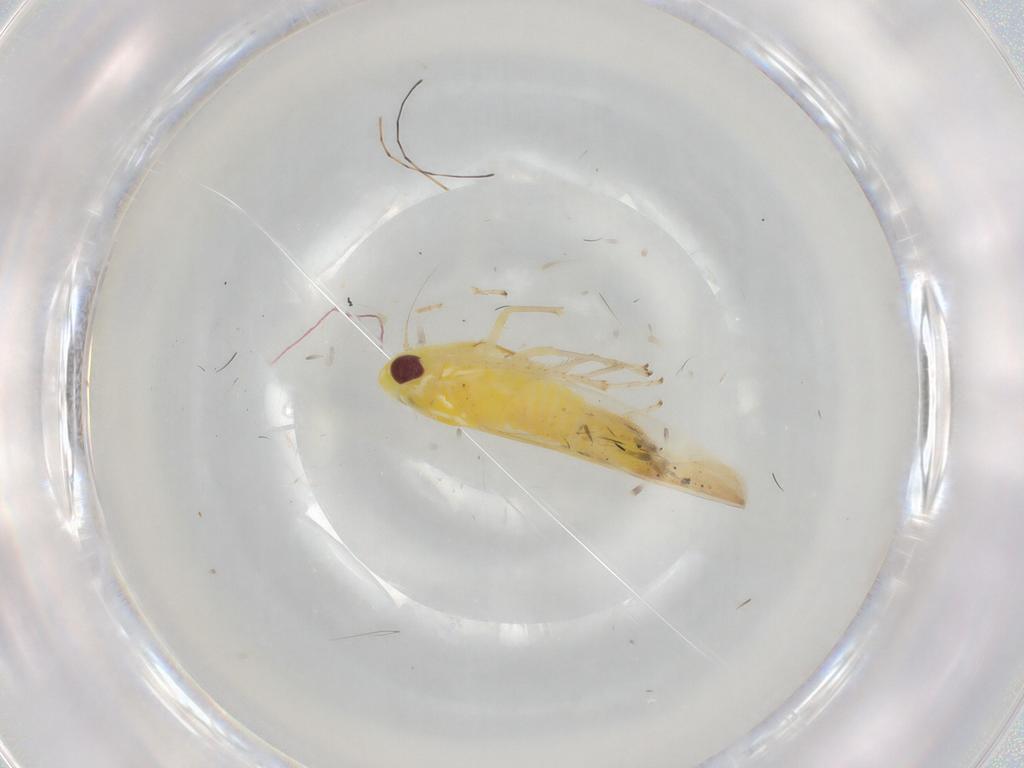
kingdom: Animalia
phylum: Arthropoda
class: Insecta
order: Hemiptera
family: Cicadellidae
